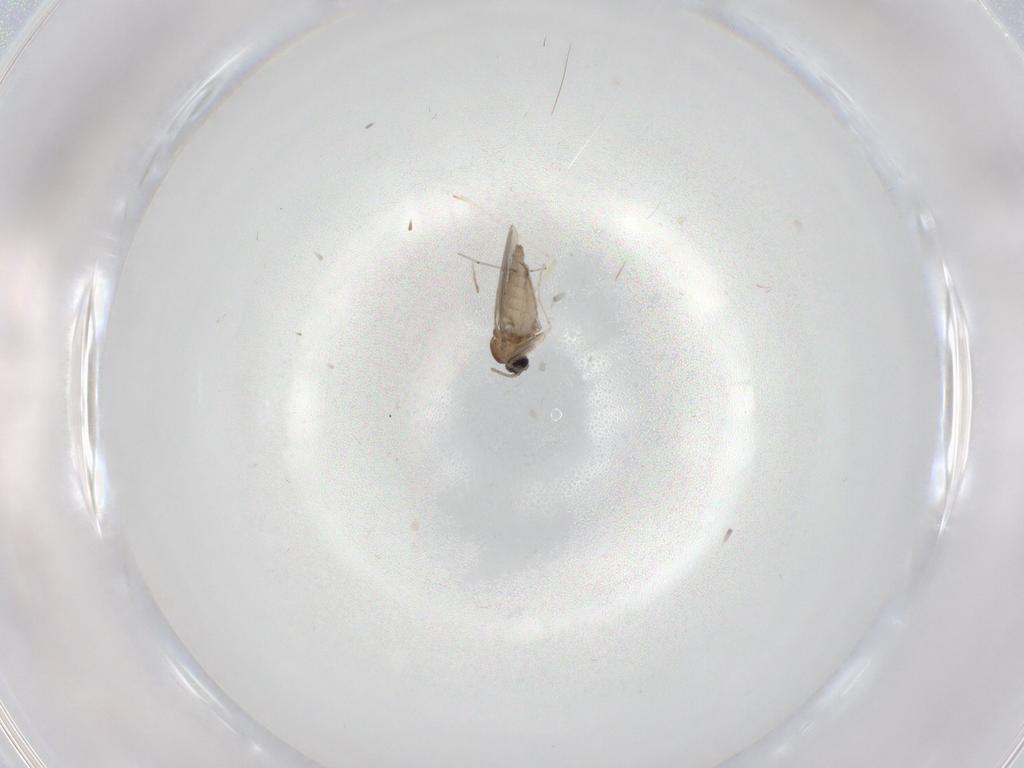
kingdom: Animalia
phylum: Arthropoda
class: Insecta
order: Diptera
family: Cecidomyiidae
